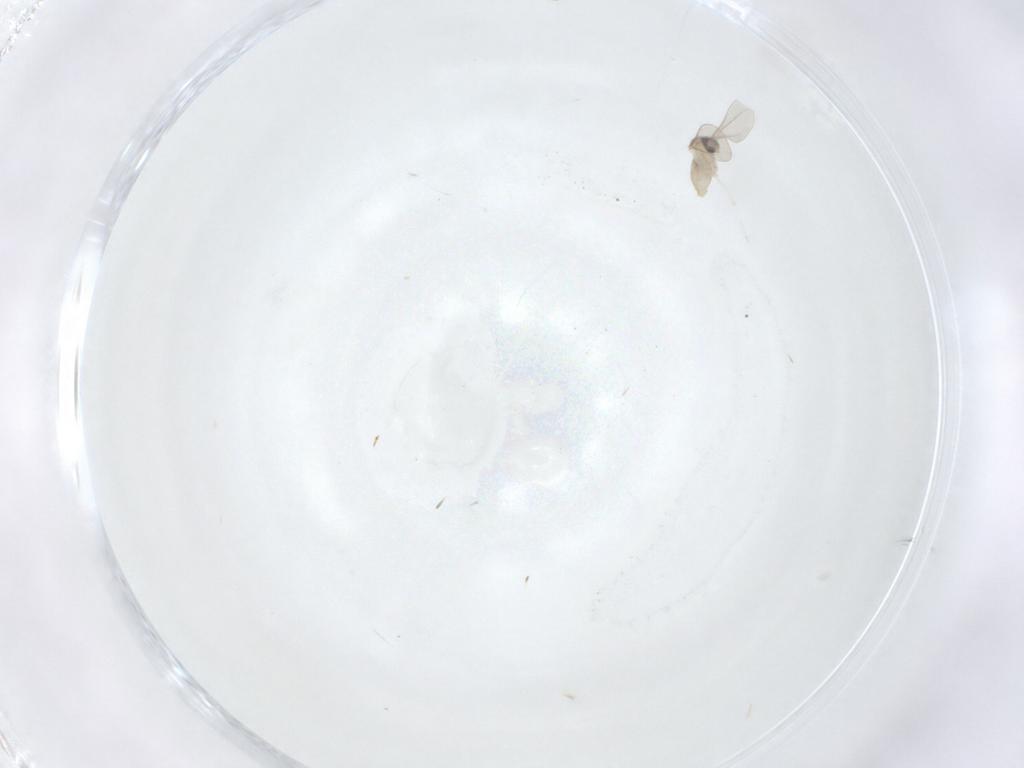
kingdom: Animalia
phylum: Arthropoda
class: Insecta
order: Diptera
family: Cecidomyiidae
